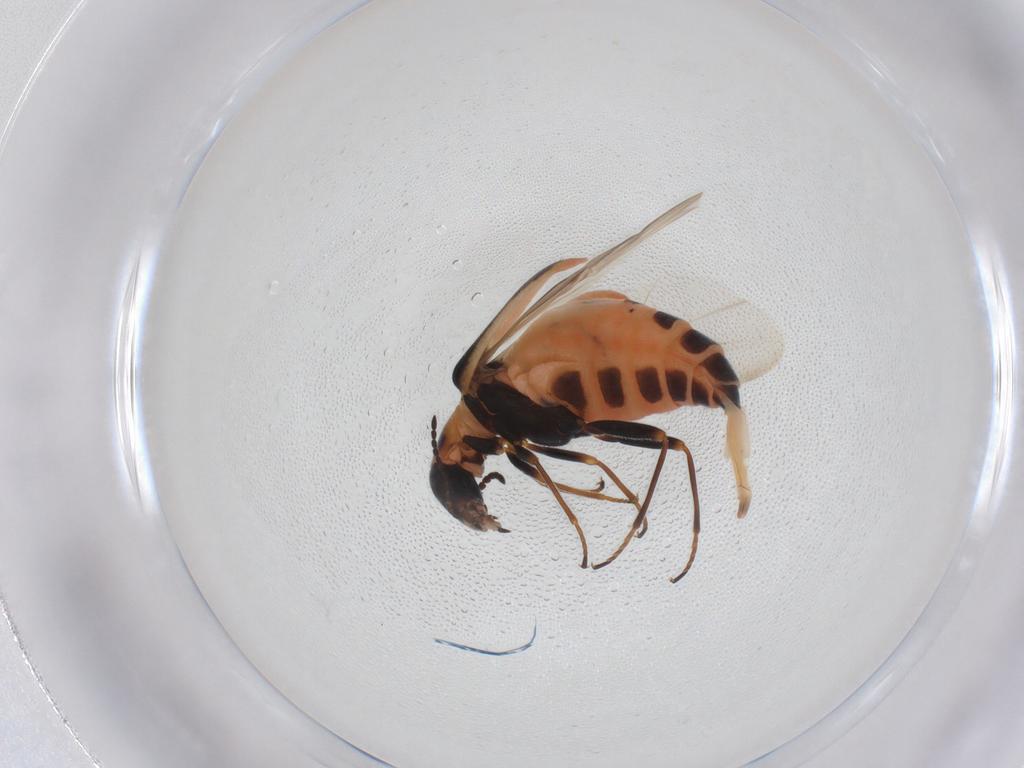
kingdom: Animalia
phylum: Arthropoda
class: Insecta
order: Coleoptera
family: Melyridae
